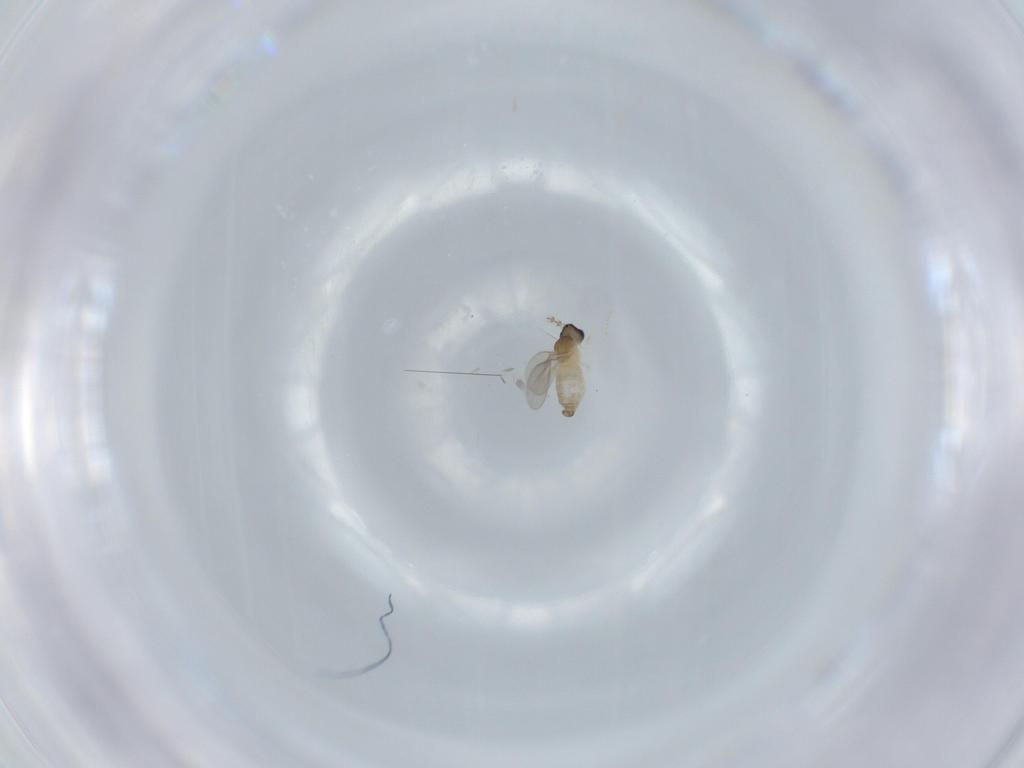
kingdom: Animalia
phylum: Arthropoda
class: Insecta
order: Diptera
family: Cecidomyiidae
